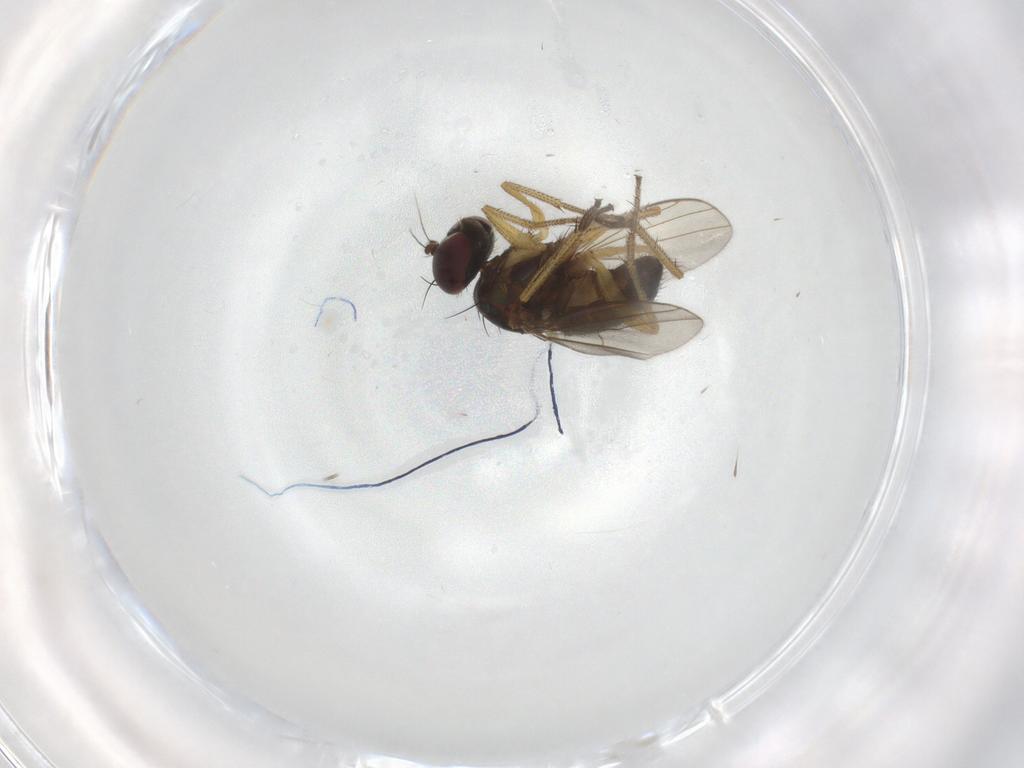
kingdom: Animalia
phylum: Arthropoda
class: Insecta
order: Diptera
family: Dolichopodidae
